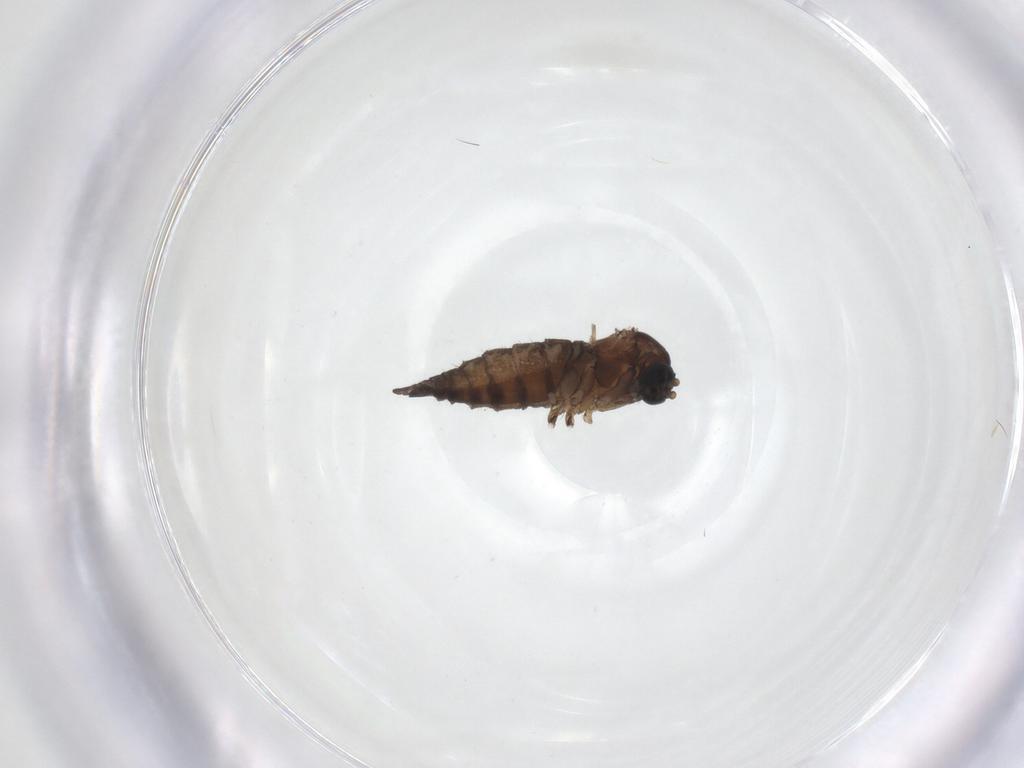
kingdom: Animalia
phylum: Arthropoda
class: Insecta
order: Diptera
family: Sciaridae
